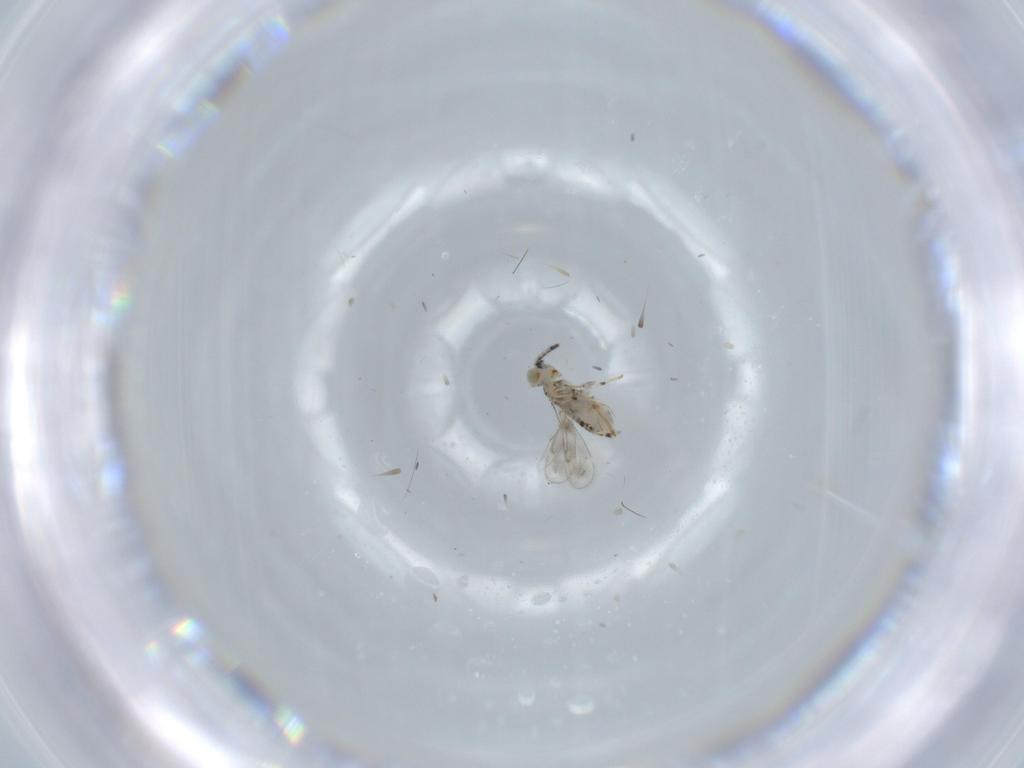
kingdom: Animalia
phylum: Arthropoda
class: Insecta
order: Hymenoptera
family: Aphelinidae
